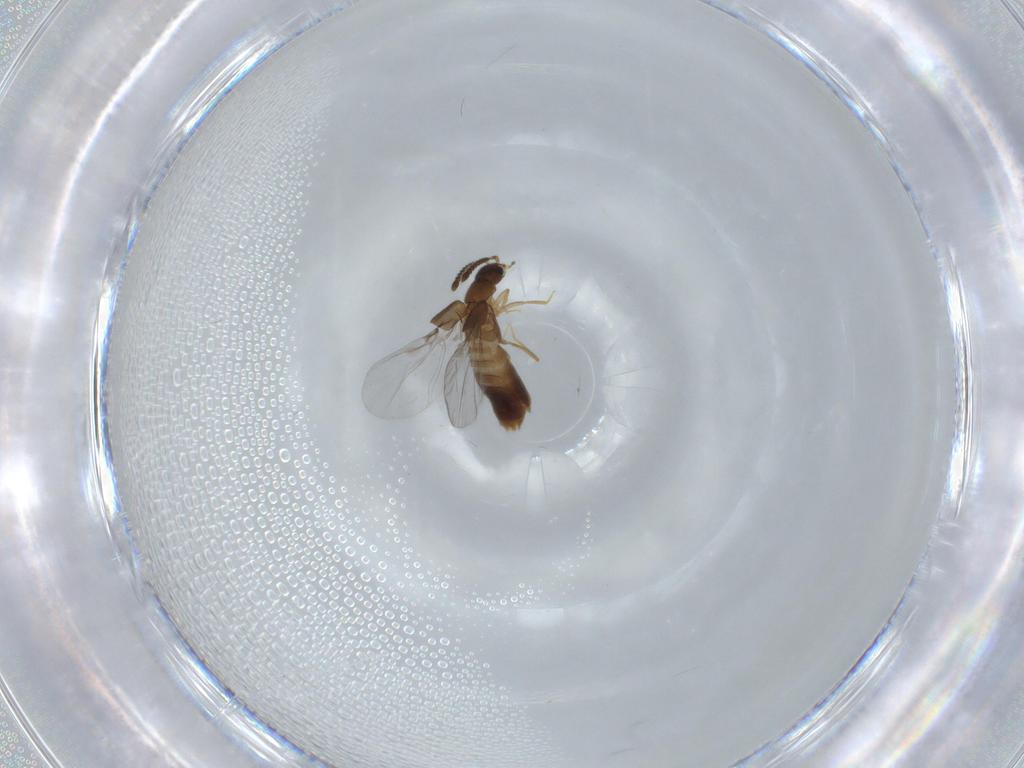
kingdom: Animalia
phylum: Arthropoda
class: Insecta
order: Coleoptera
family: Staphylinidae
